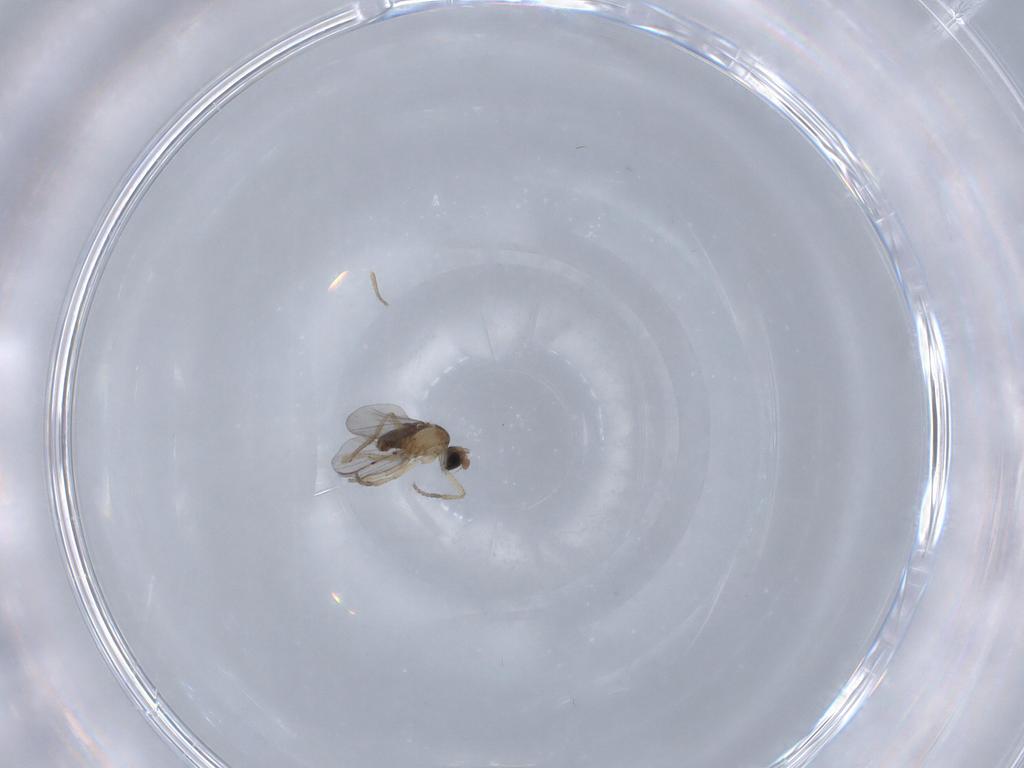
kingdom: Animalia
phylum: Arthropoda
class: Insecta
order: Diptera
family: Phoridae
